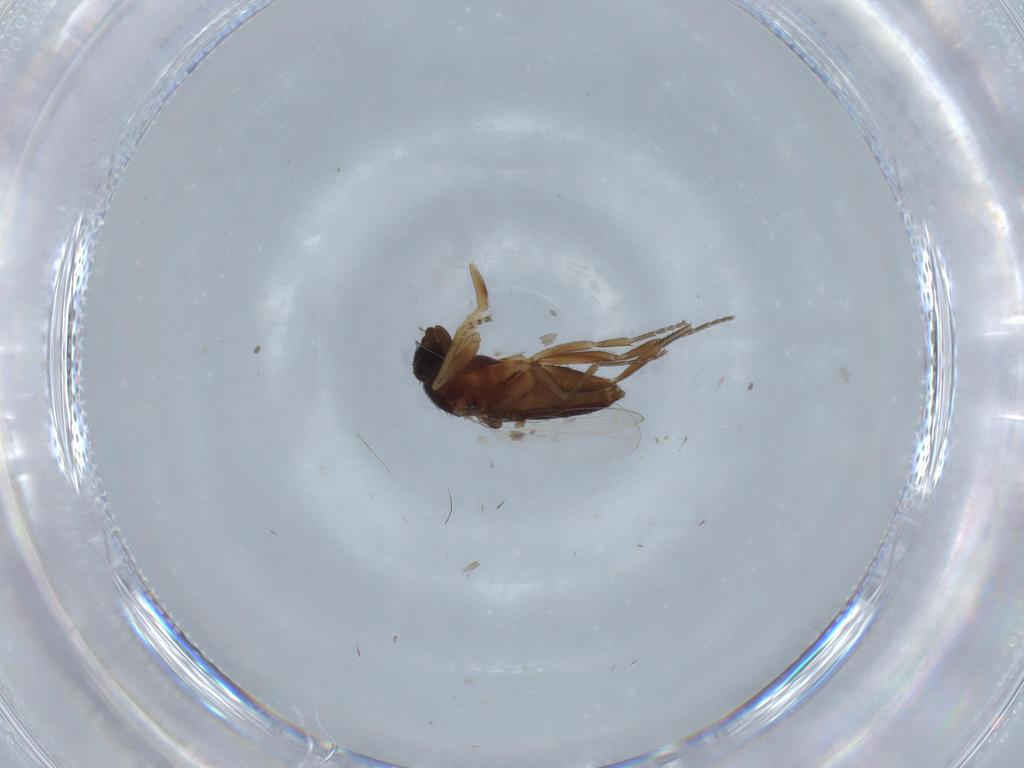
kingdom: Animalia
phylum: Arthropoda
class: Insecta
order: Diptera
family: Phoridae
